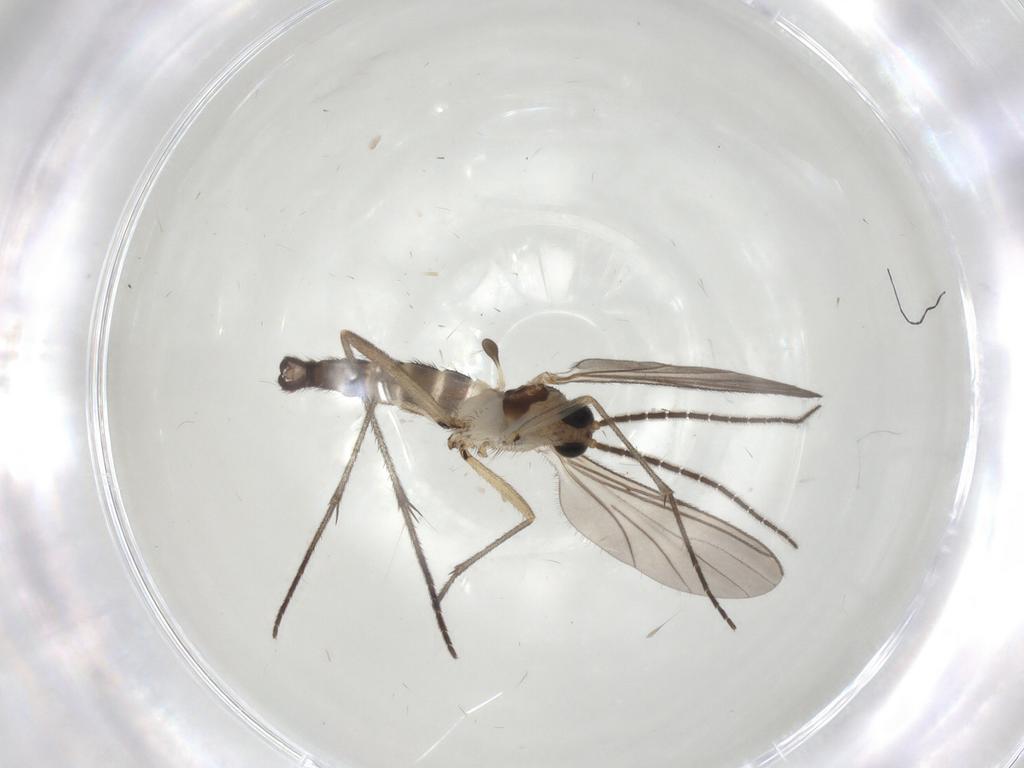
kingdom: Animalia
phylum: Arthropoda
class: Insecta
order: Diptera
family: Sciaridae
